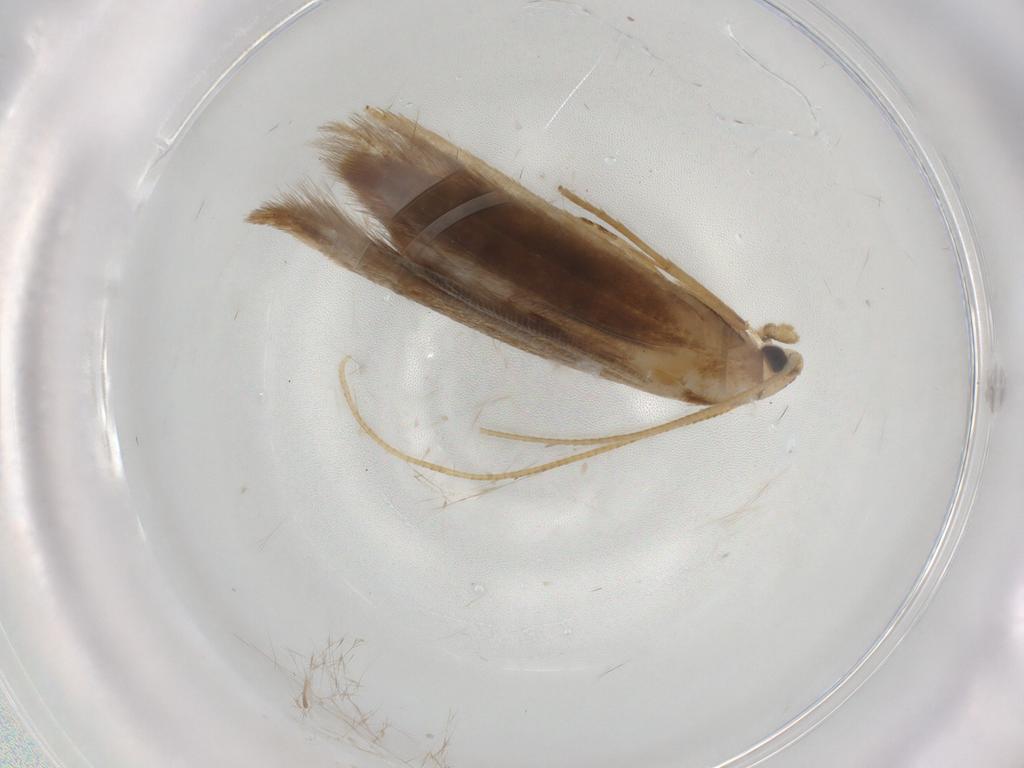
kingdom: Animalia
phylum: Arthropoda
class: Insecta
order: Lepidoptera
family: Tineidae
